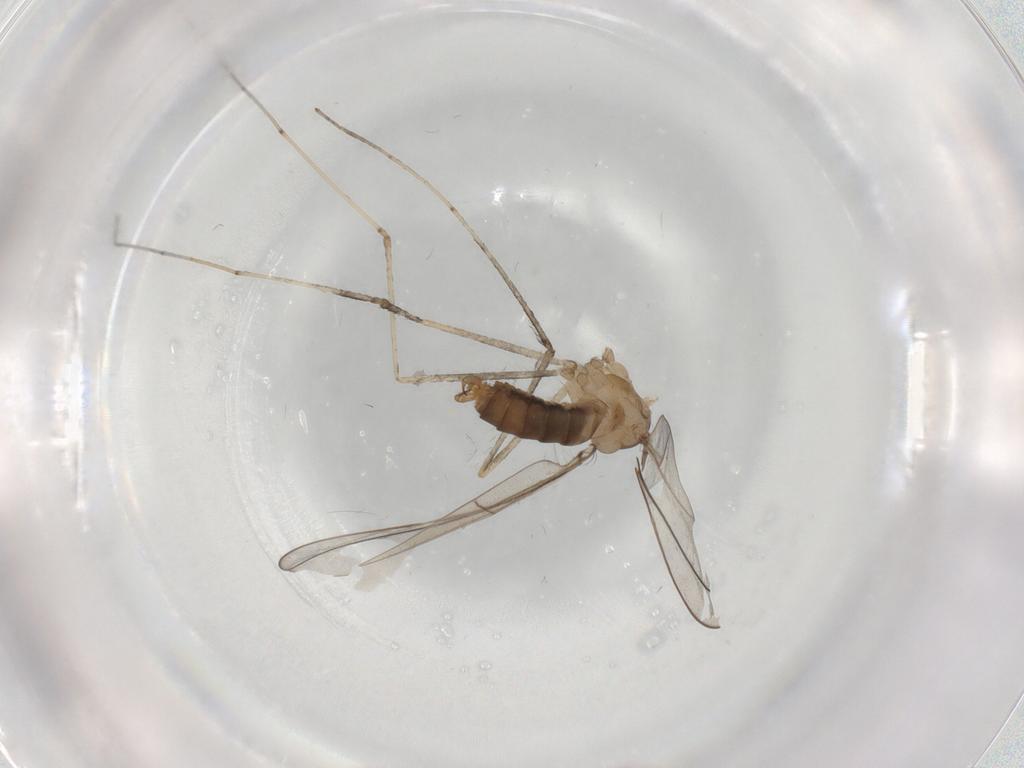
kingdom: Animalia
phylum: Arthropoda
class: Insecta
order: Diptera
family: Cecidomyiidae
